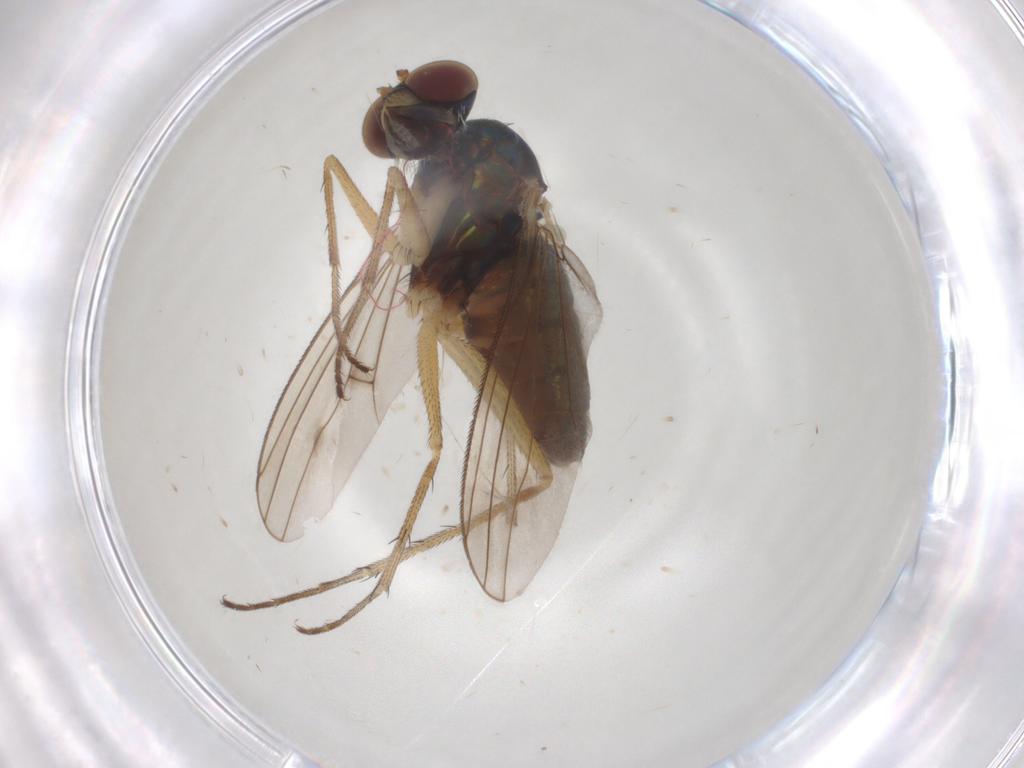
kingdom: Animalia
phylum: Arthropoda
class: Insecta
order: Diptera
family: Dolichopodidae
